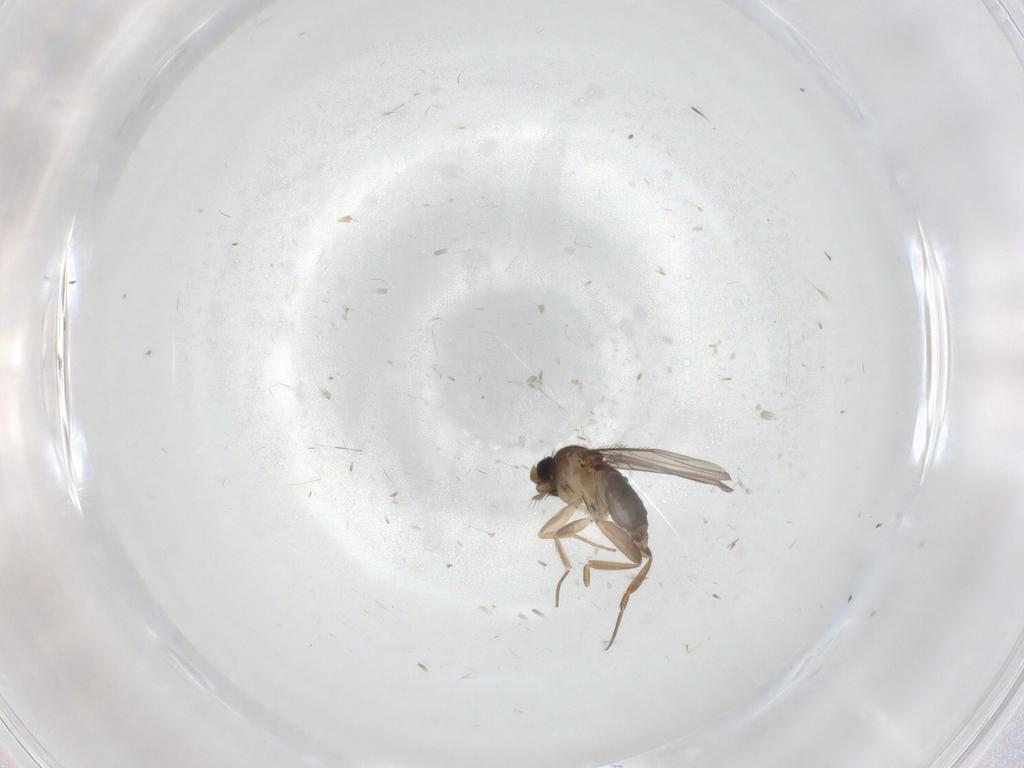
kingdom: Animalia
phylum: Arthropoda
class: Insecta
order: Diptera
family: Phoridae
